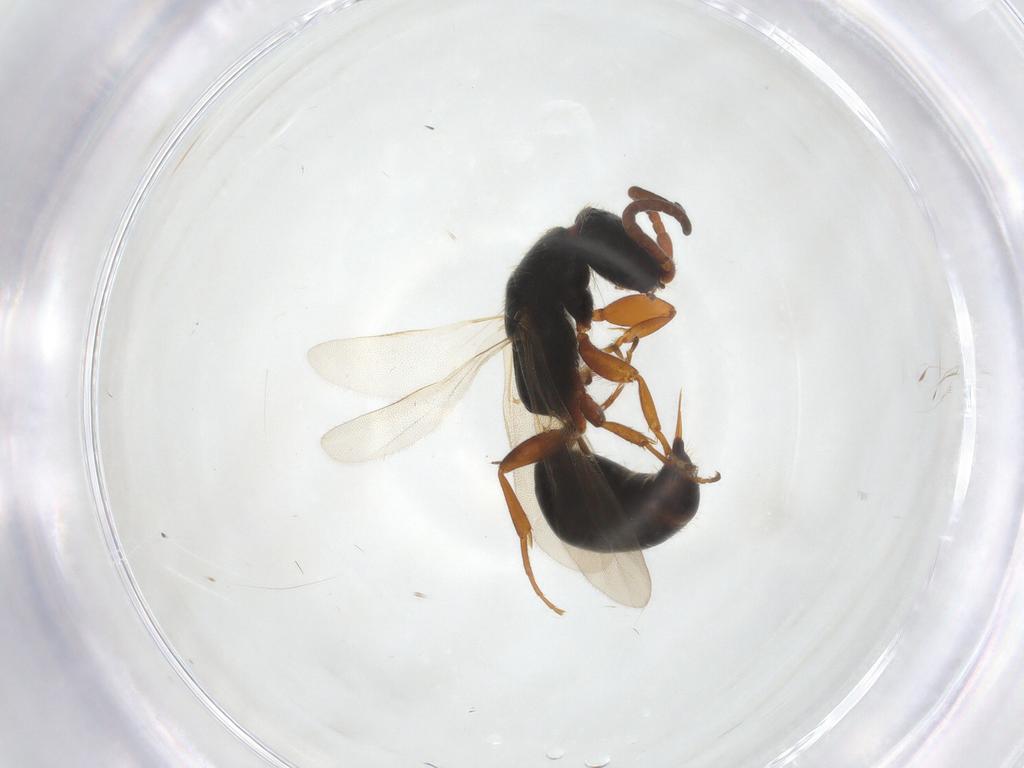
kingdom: Animalia
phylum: Arthropoda
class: Insecta
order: Hymenoptera
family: Bethylidae
